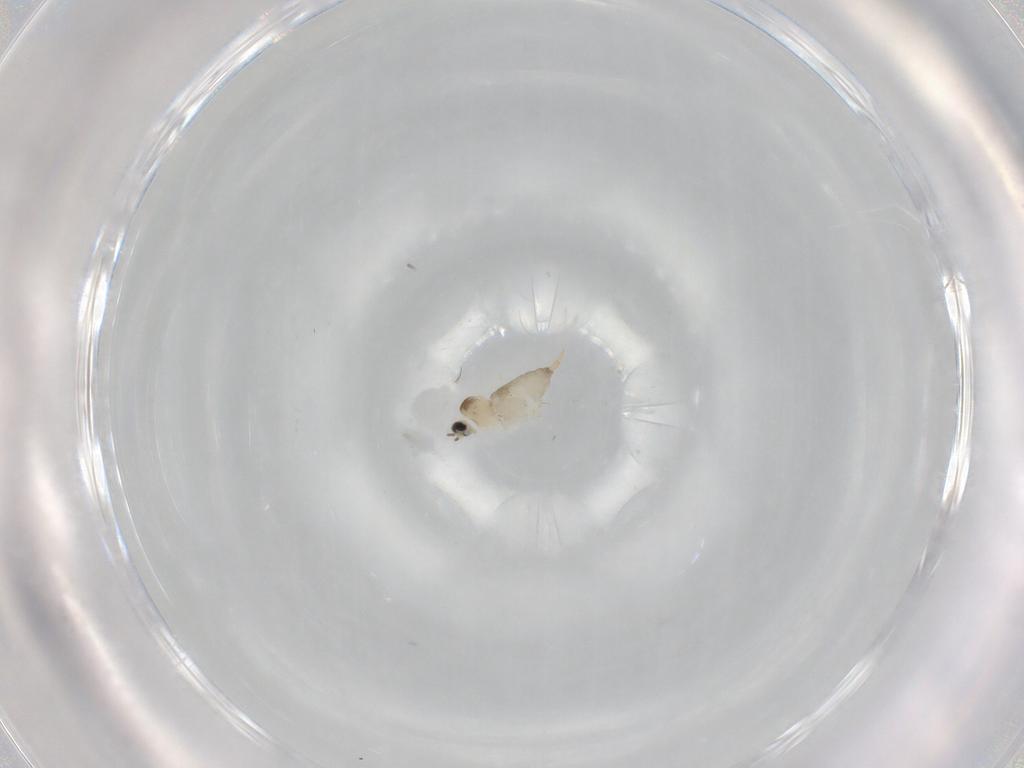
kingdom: Animalia
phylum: Arthropoda
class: Insecta
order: Diptera
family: Cecidomyiidae
